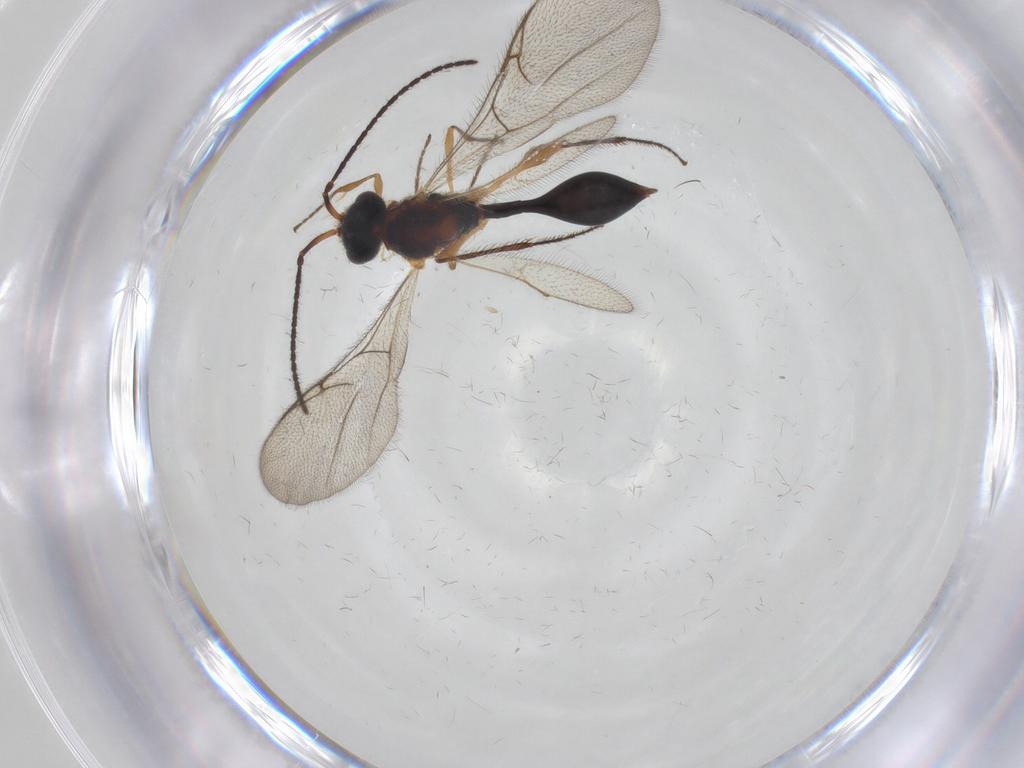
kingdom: Animalia
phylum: Arthropoda
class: Insecta
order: Hymenoptera
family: Diapriidae
